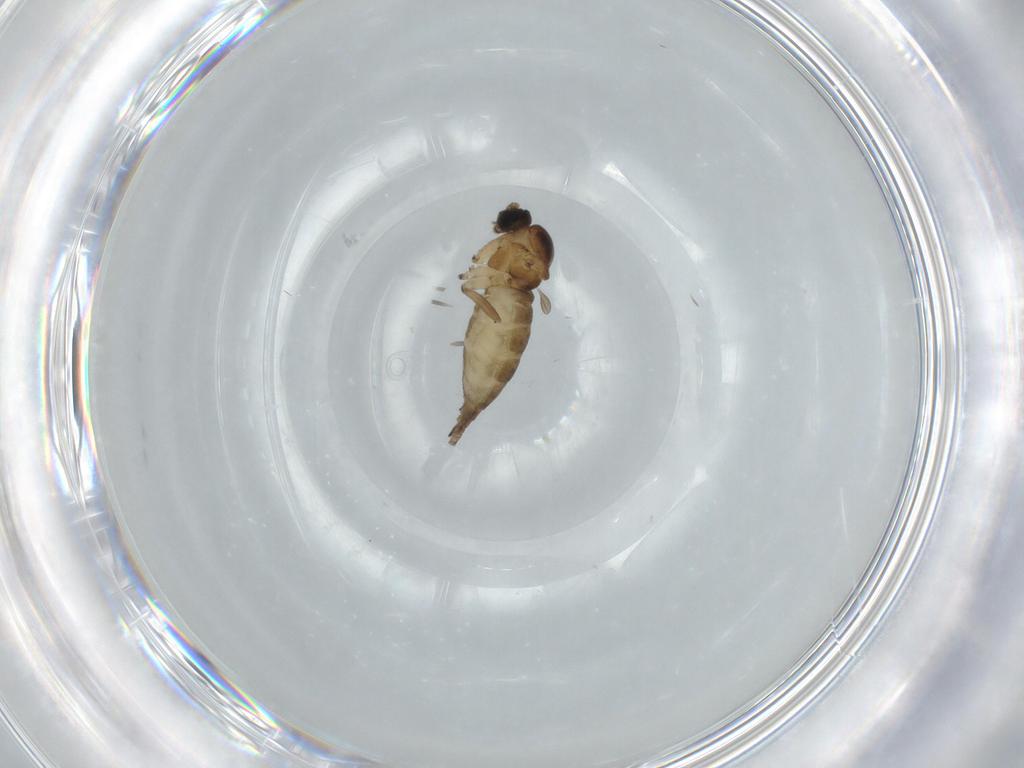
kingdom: Animalia
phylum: Arthropoda
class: Insecta
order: Diptera
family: Sciaridae
